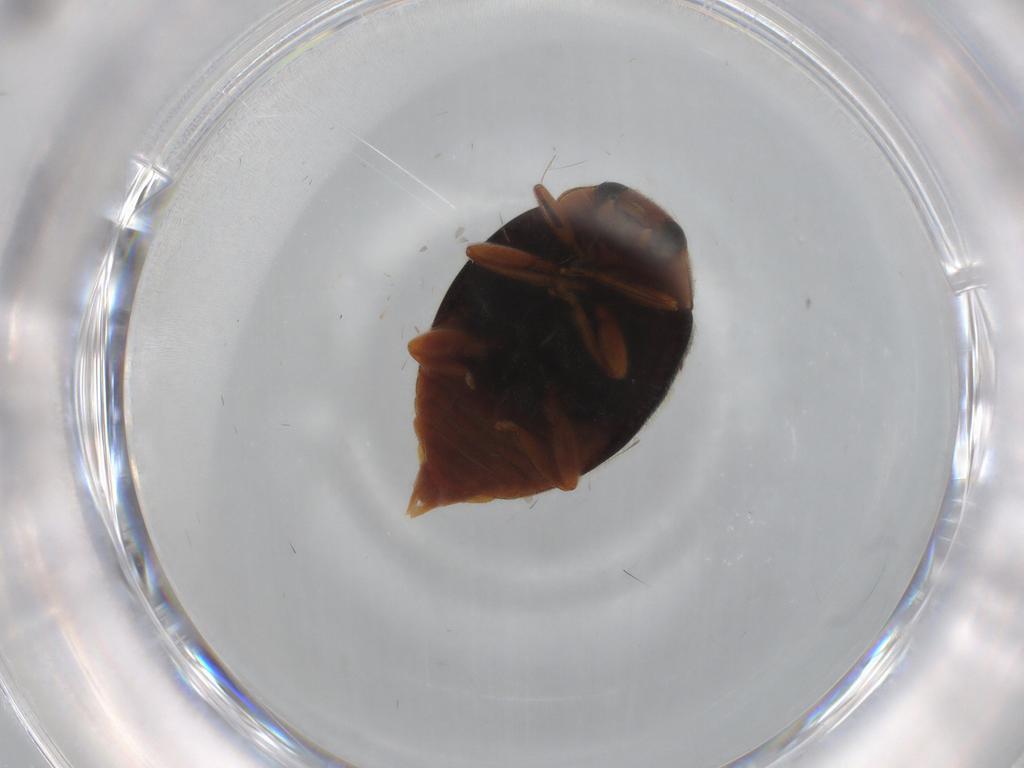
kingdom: Animalia
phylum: Arthropoda
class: Insecta
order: Coleoptera
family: Coccinellidae
